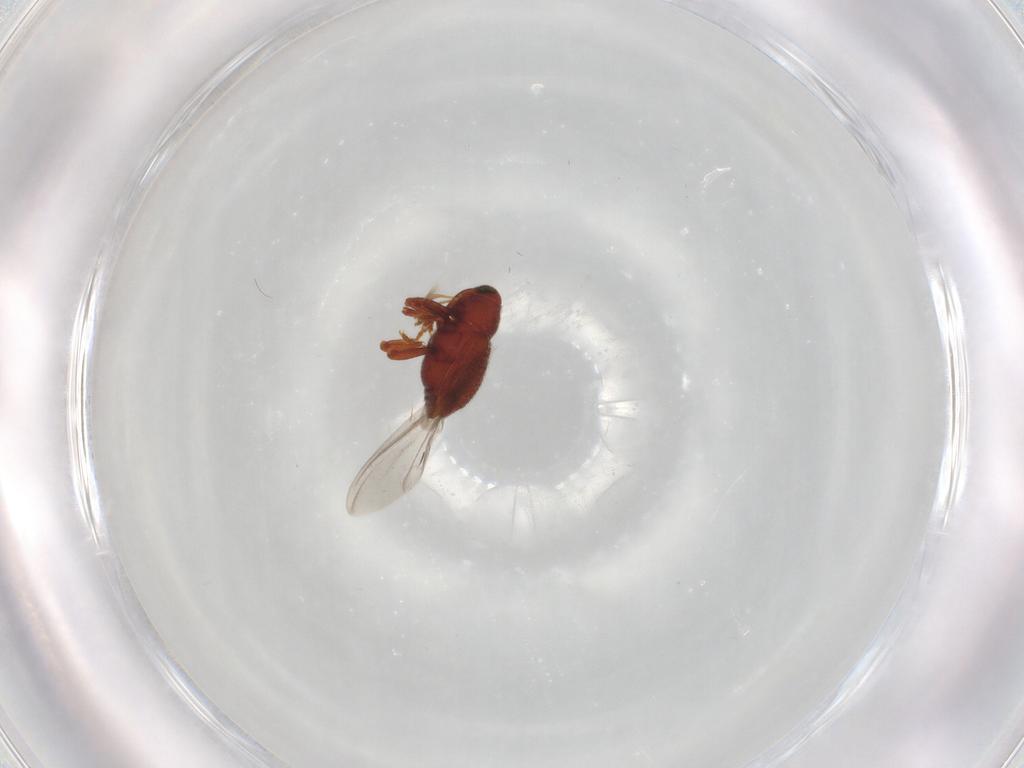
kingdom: Animalia
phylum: Arthropoda
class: Insecta
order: Coleoptera
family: Curculionidae
